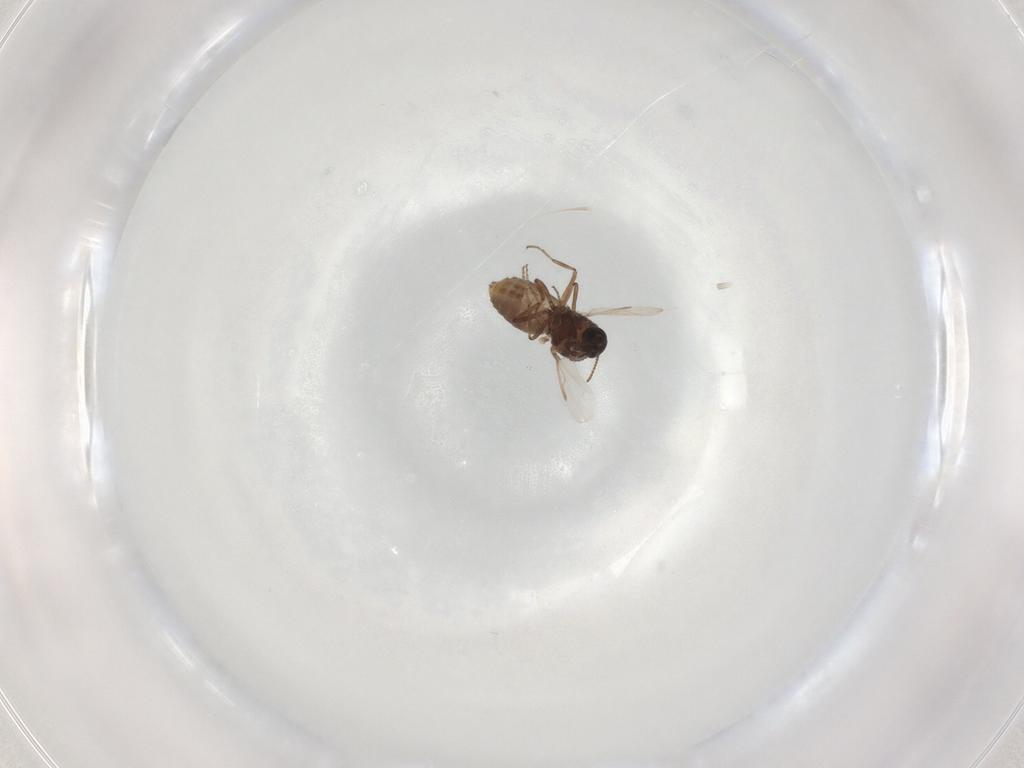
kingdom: Animalia
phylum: Arthropoda
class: Insecta
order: Diptera
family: Ceratopogonidae
